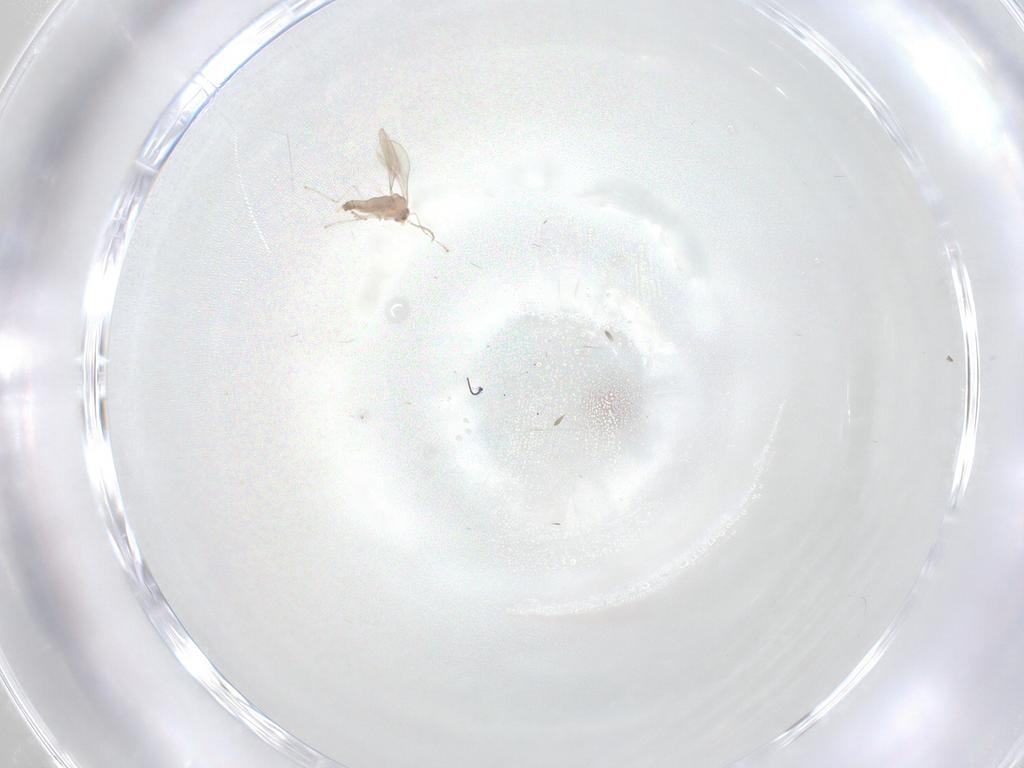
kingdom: Animalia
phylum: Arthropoda
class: Insecta
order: Diptera
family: Cecidomyiidae
